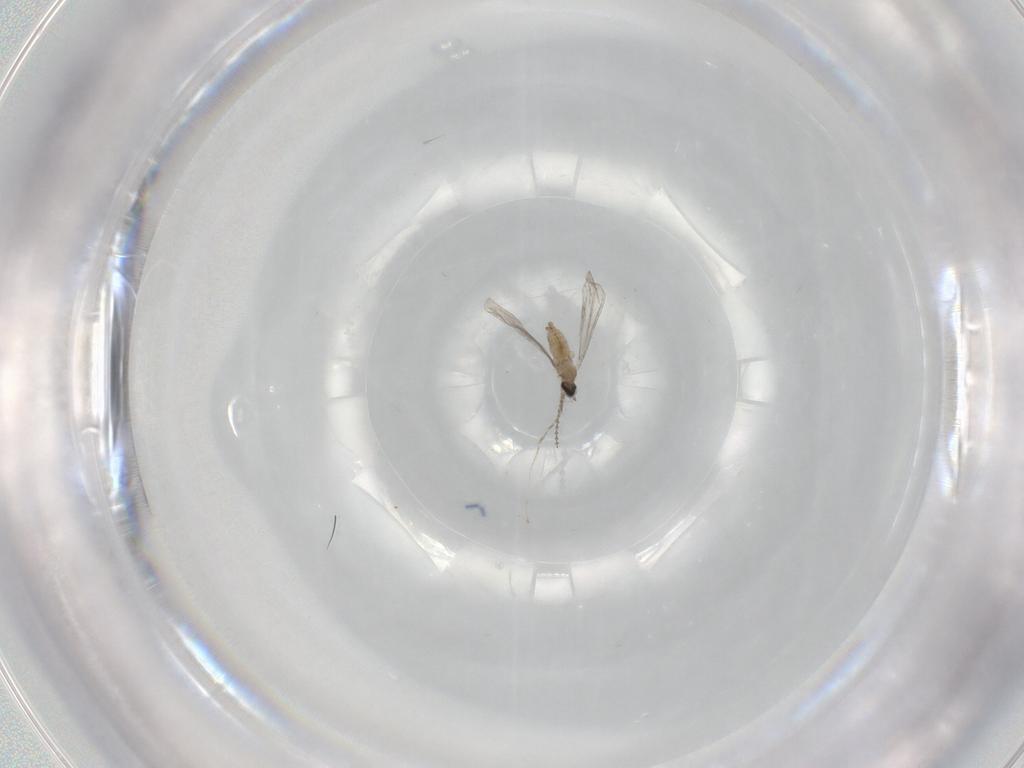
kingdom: Animalia
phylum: Arthropoda
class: Insecta
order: Diptera
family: Cecidomyiidae
